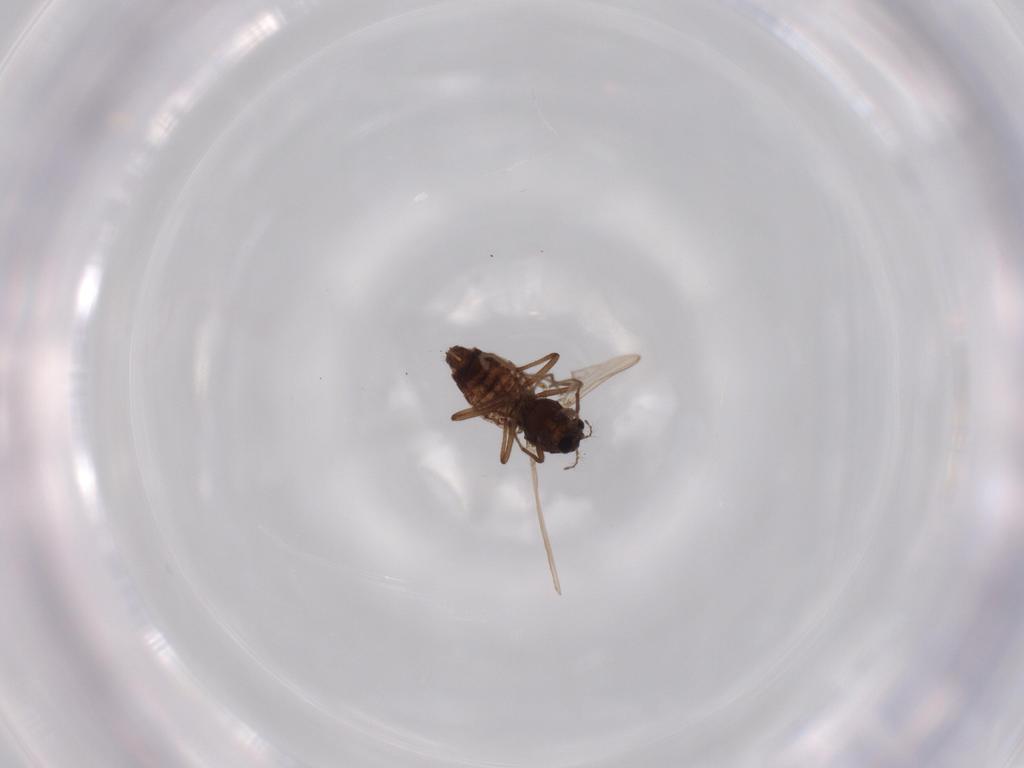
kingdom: Animalia
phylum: Arthropoda
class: Insecta
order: Diptera
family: Chironomidae
